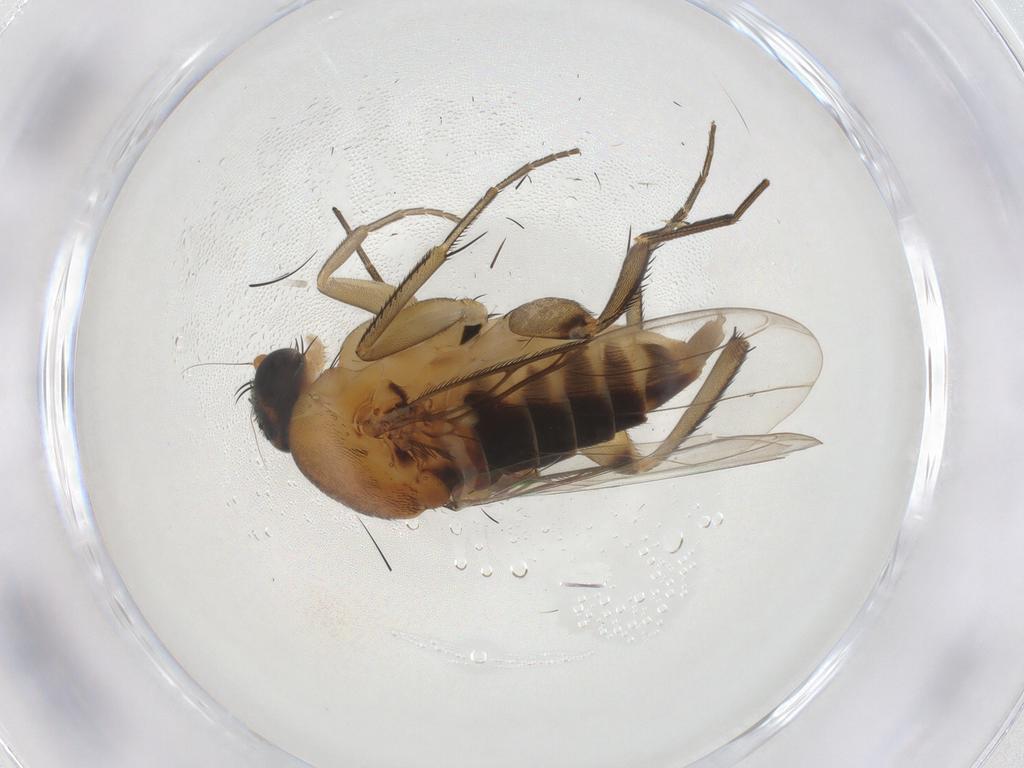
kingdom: Animalia
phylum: Arthropoda
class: Insecta
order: Diptera
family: Phoridae
